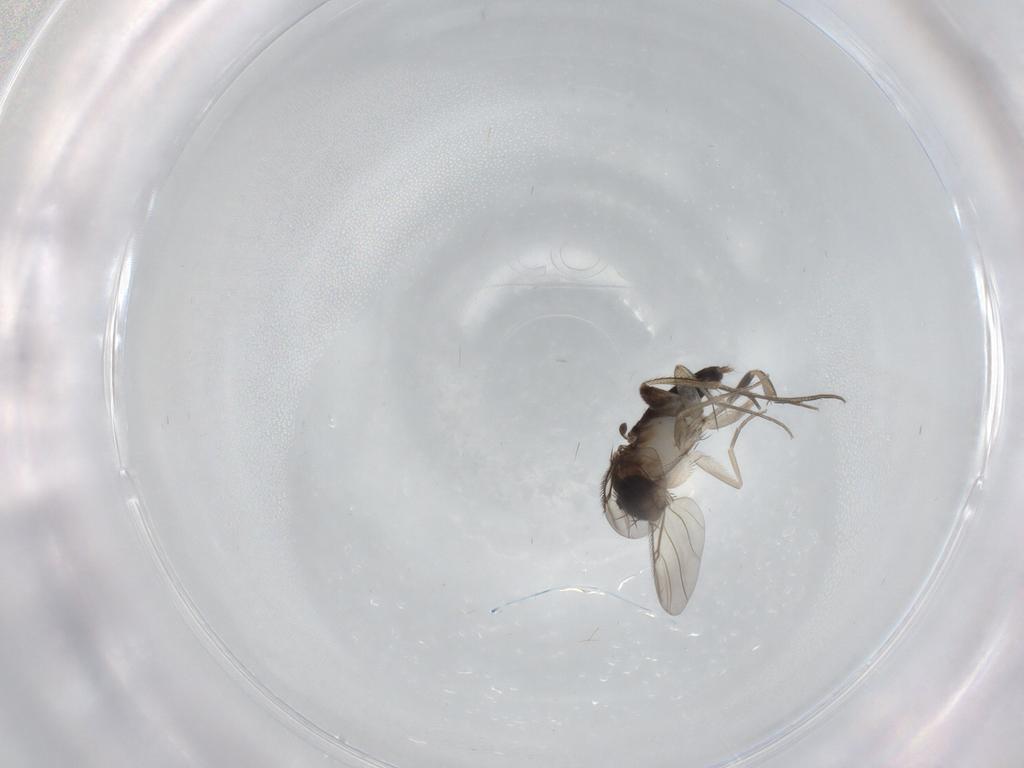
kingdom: Animalia
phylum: Arthropoda
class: Insecta
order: Diptera
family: Phoridae
